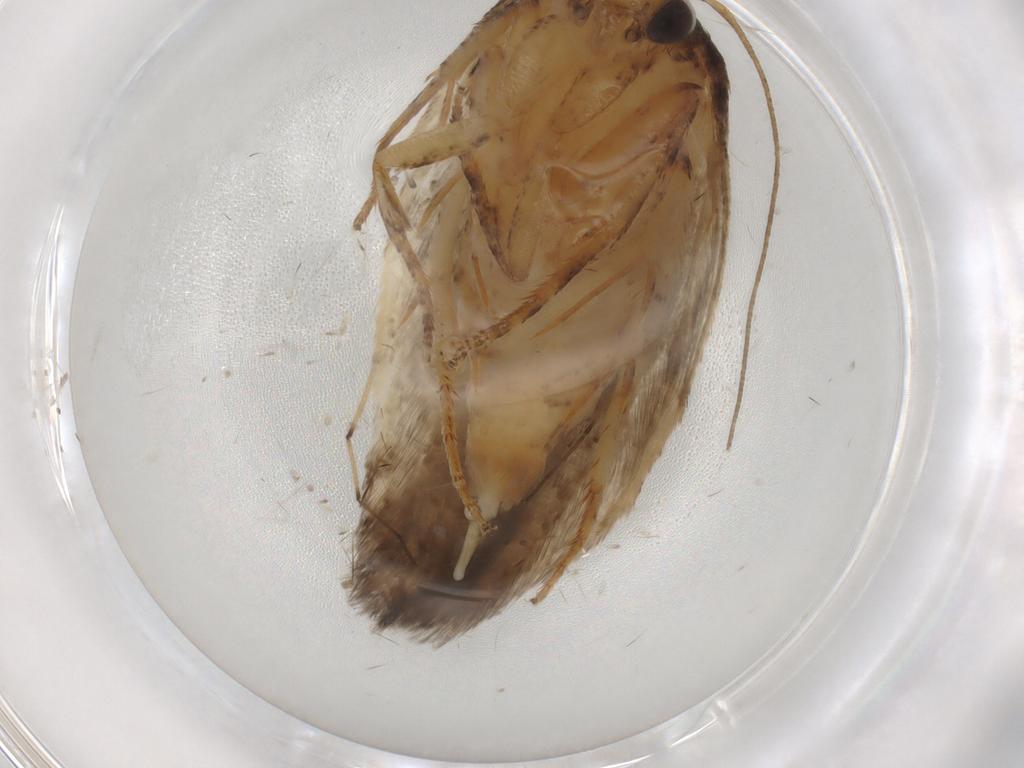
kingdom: Animalia
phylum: Arthropoda
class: Insecta
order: Lepidoptera
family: Gelechiidae
